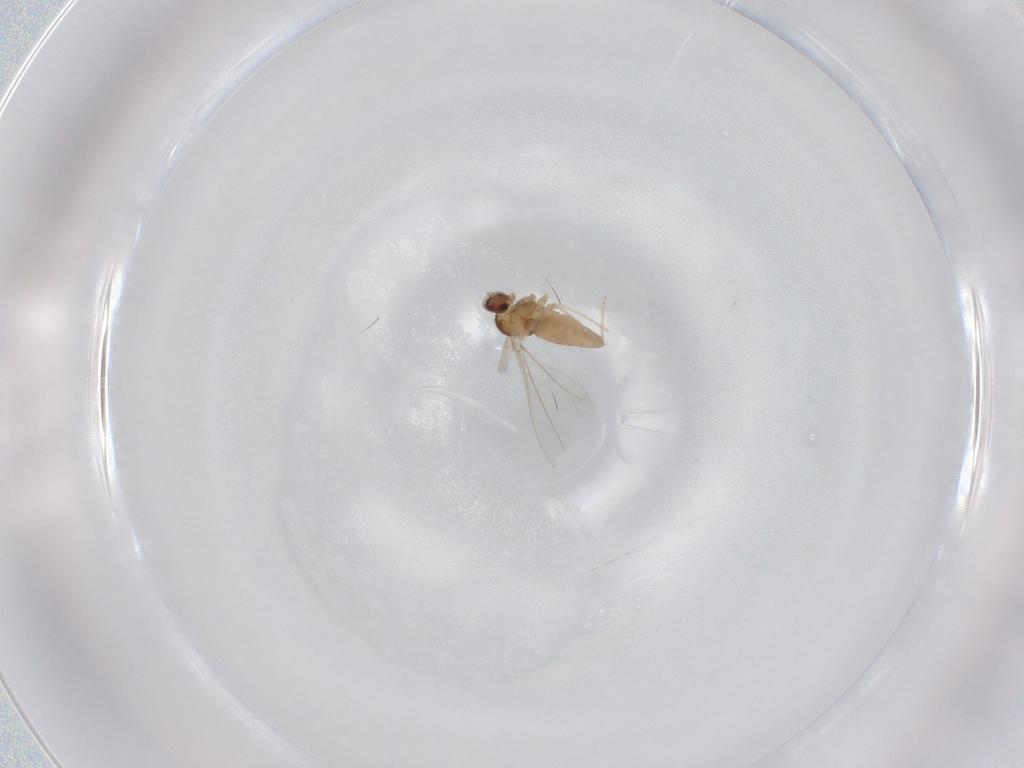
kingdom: Animalia
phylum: Arthropoda
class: Insecta
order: Diptera
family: Cecidomyiidae
